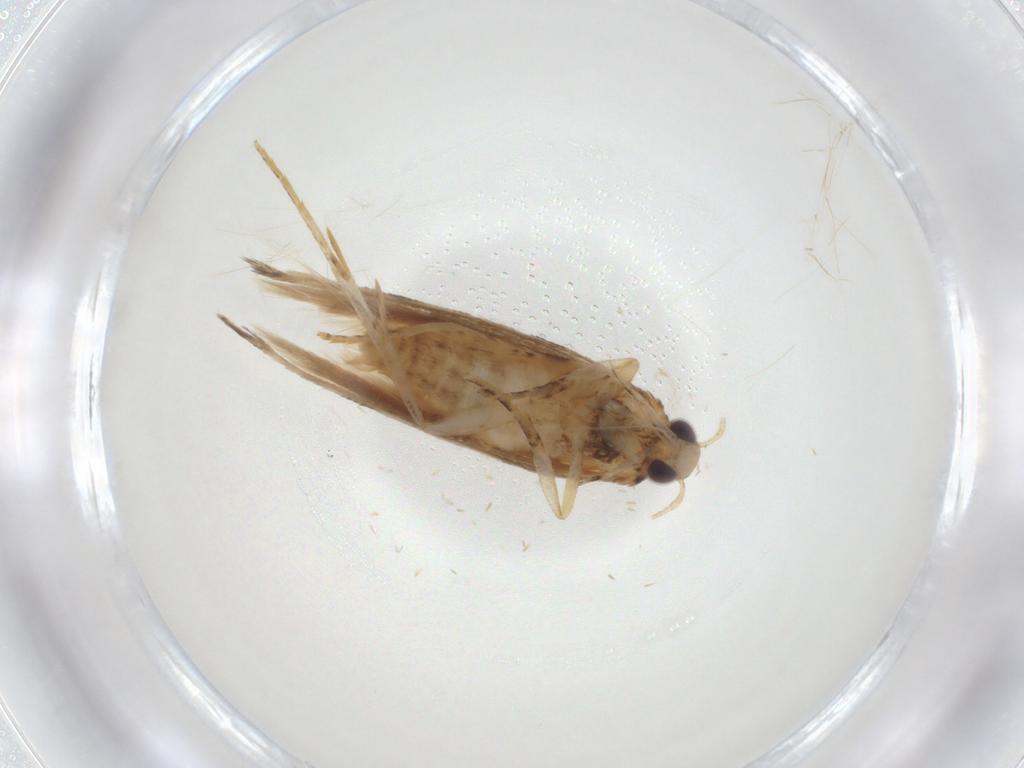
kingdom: Animalia
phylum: Arthropoda
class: Insecta
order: Lepidoptera
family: Gelechiidae
